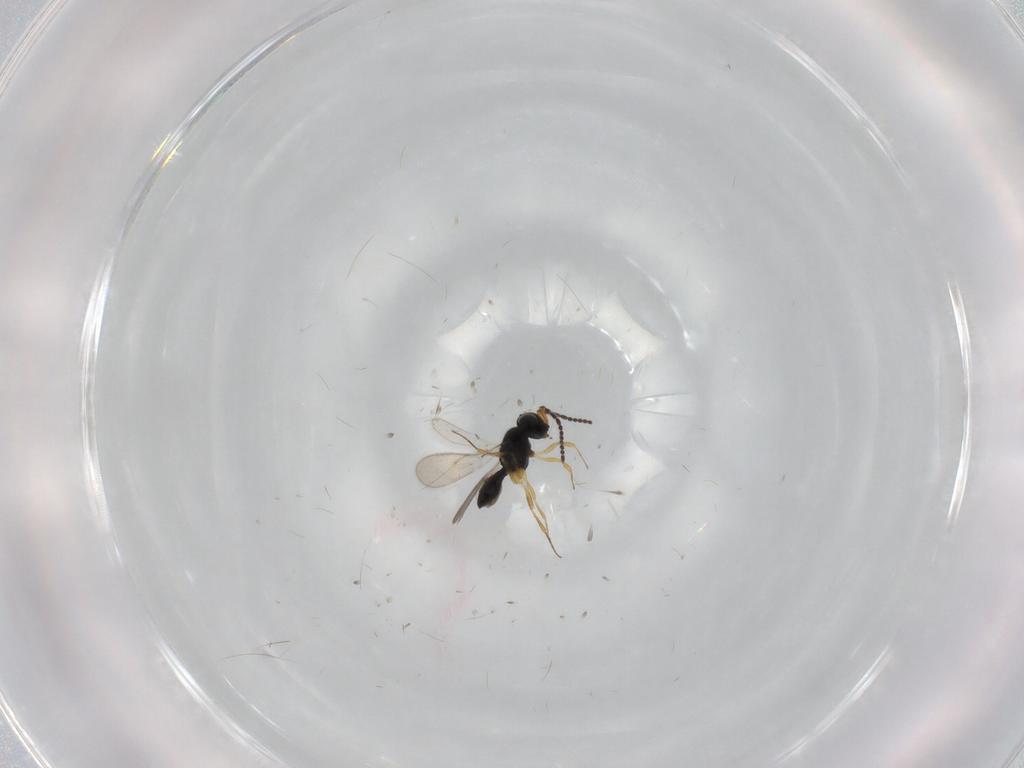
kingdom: Animalia
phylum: Arthropoda
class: Insecta
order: Hymenoptera
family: Scelionidae
